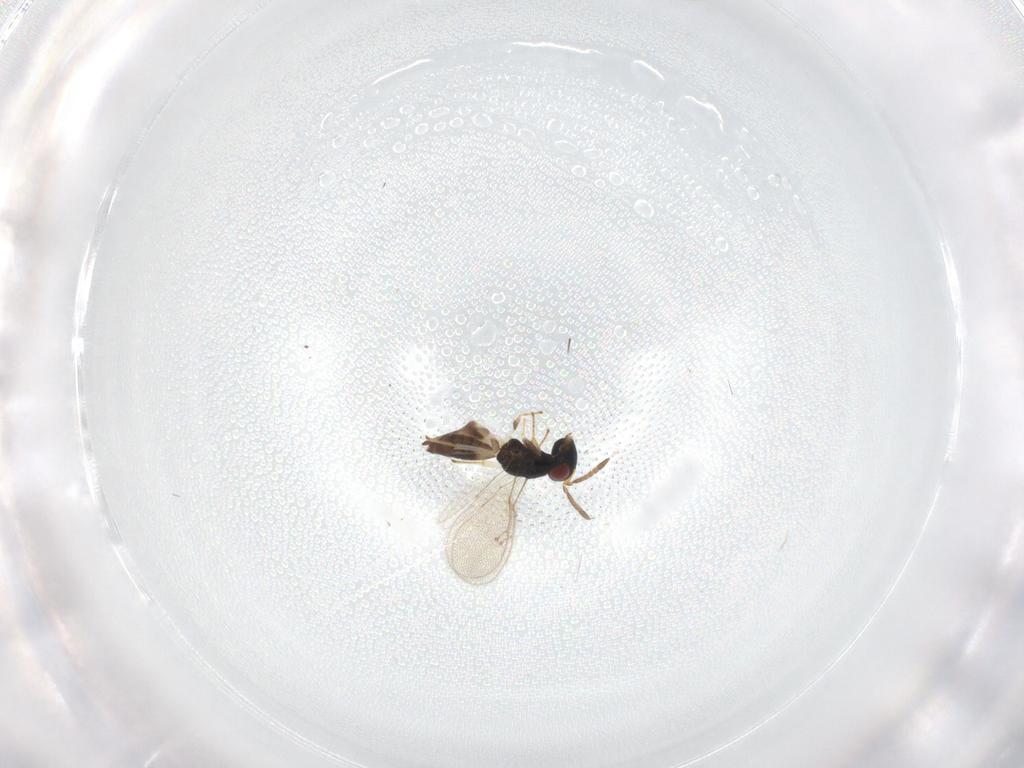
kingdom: Animalia
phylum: Arthropoda
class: Insecta
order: Hymenoptera
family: Pteromalidae
